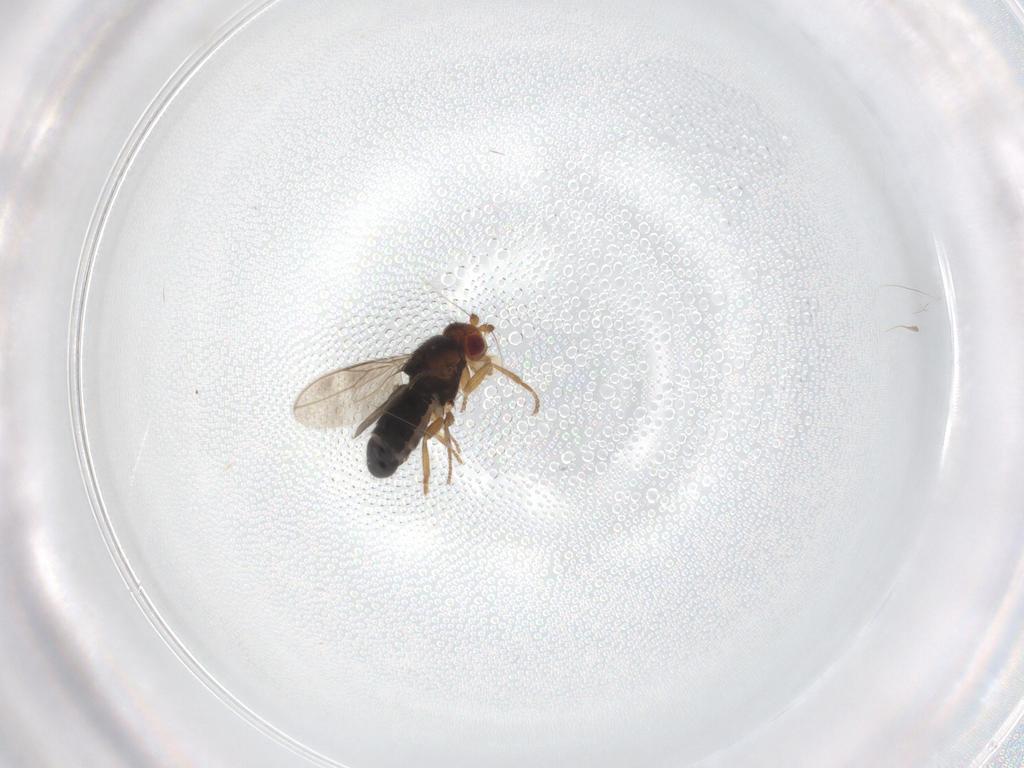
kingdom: Animalia
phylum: Arthropoda
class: Insecta
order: Diptera
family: Sphaeroceridae
